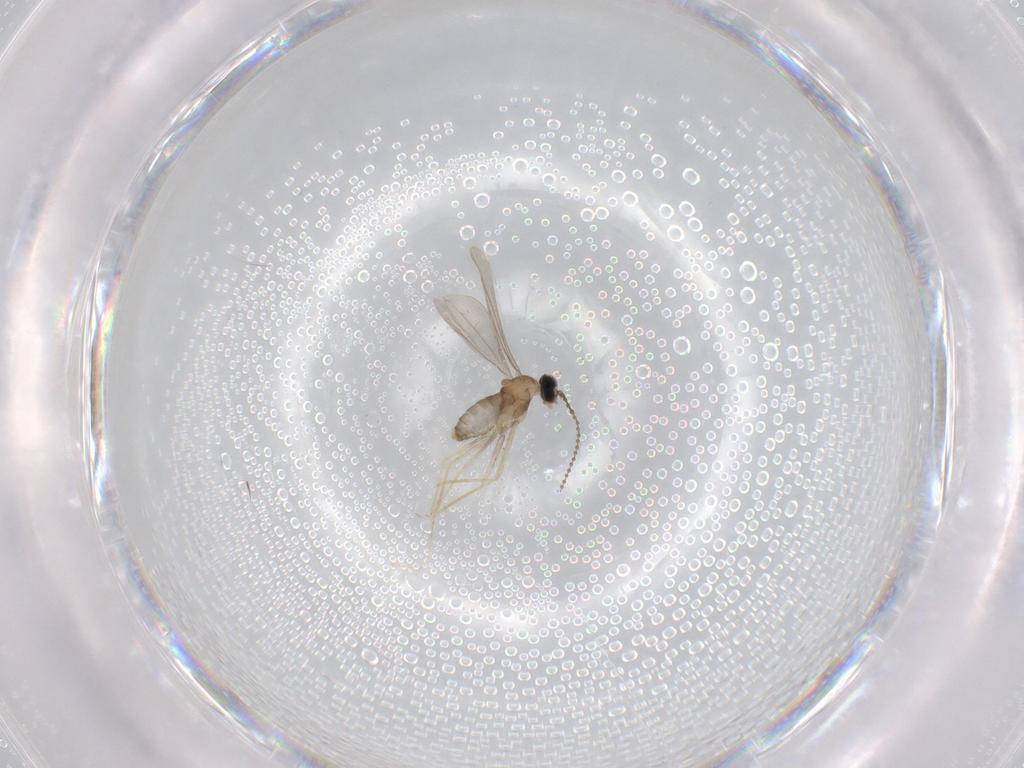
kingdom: Animalia
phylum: Arthropoda
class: Insecta
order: Diptera
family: Cecidomyiidae
